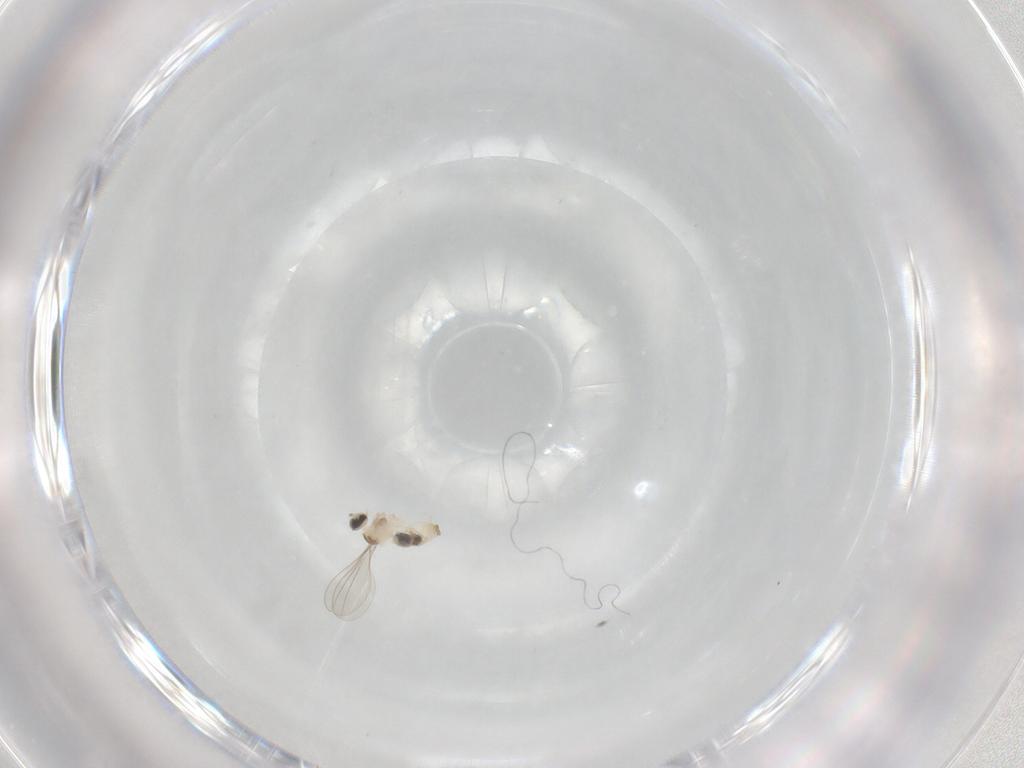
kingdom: Animalia
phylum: Arthropoda
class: Insecta
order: Diptera
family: Cecidomyiidae
